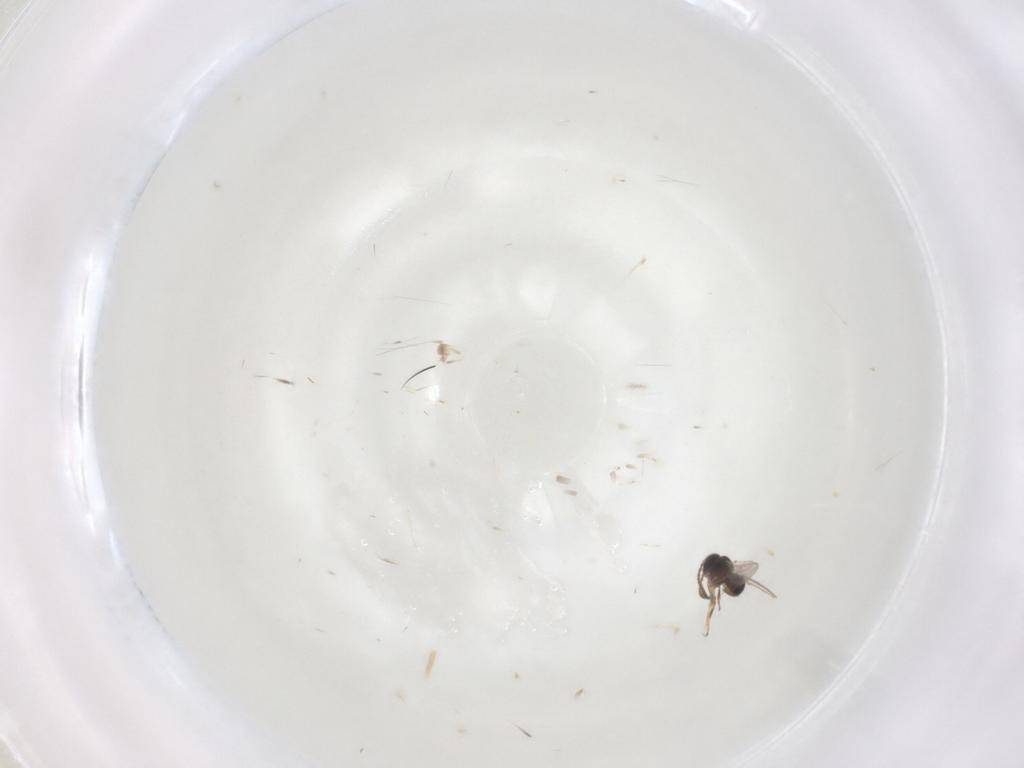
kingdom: Animalia
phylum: Arthropoda
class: Insecta
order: Hymenoptera
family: Scelionidae
